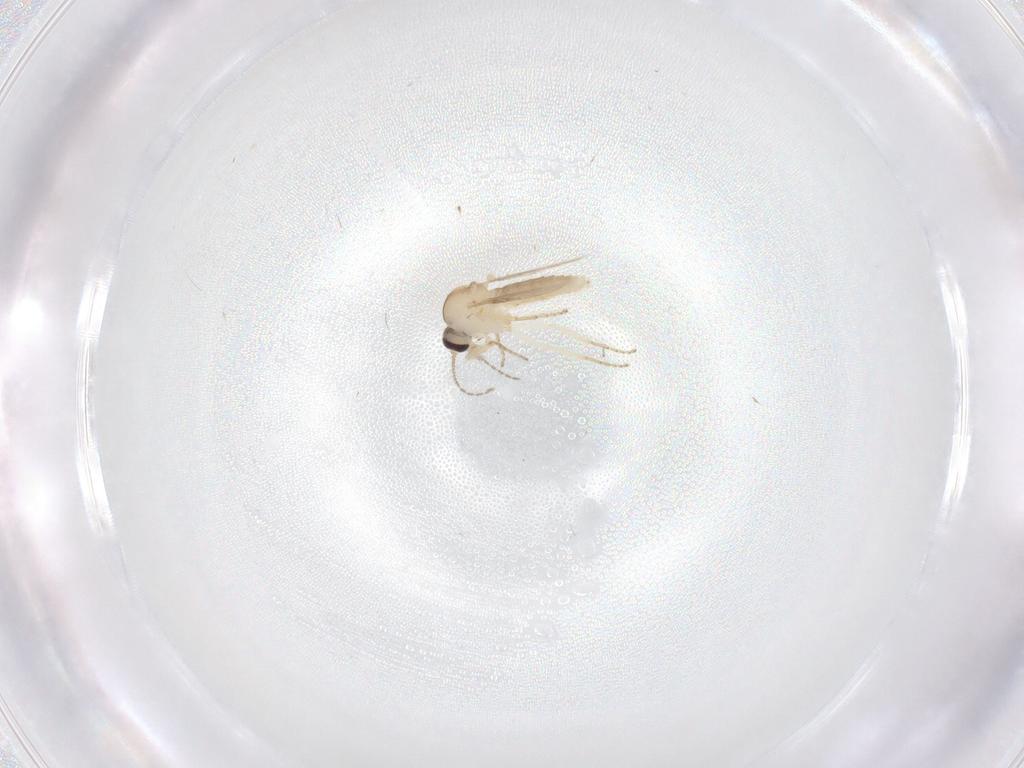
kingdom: Animalia
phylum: Arthropoda
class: Insecta
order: Diptera
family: Ceratopogonidae
